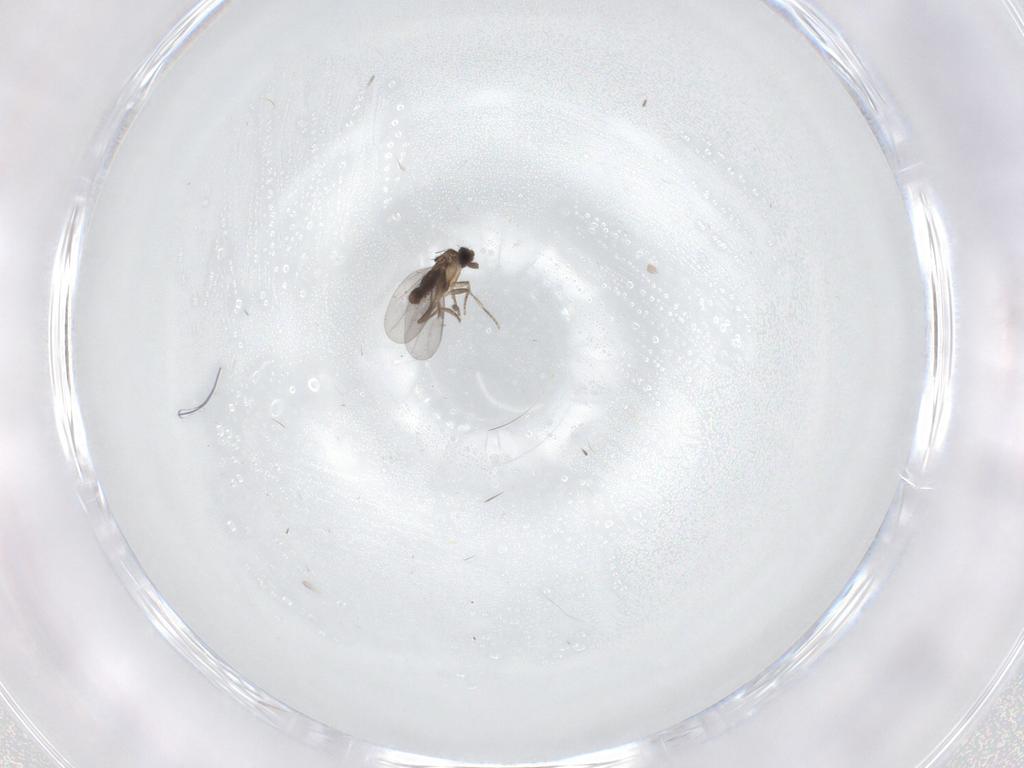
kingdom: Animalia
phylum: Arthropoda
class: Insecta
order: Diptera
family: Mycetophilidae
